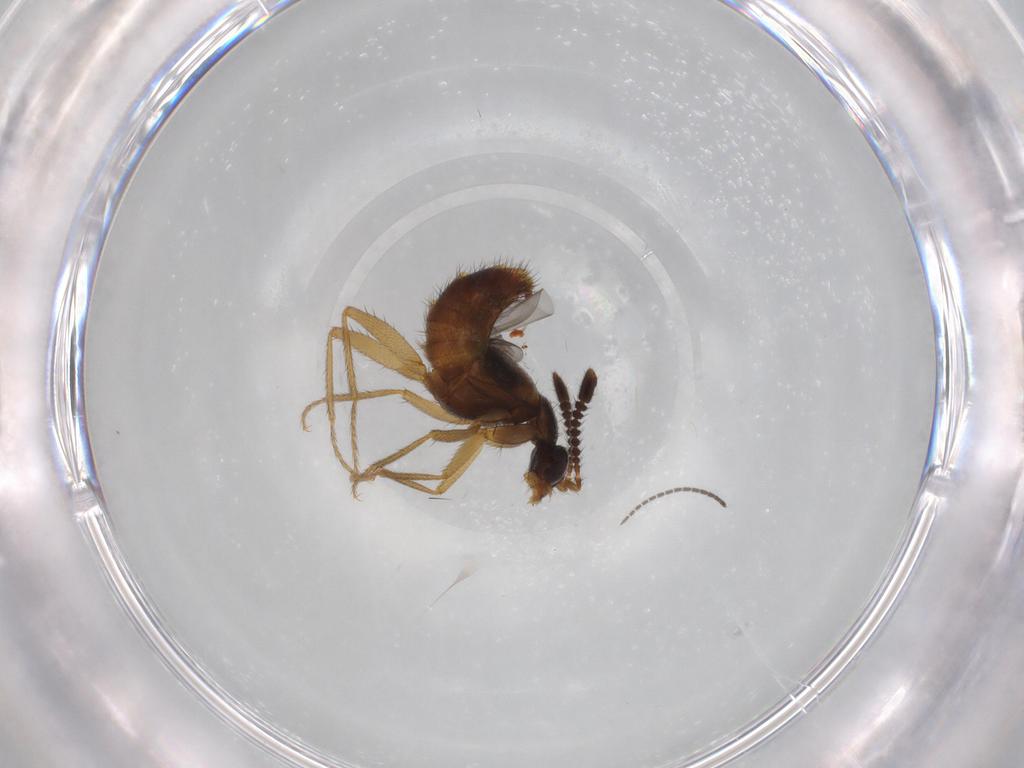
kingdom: Animalia
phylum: Arthropoda
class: Insecta
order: Coleoptera
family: Staphylinidae
